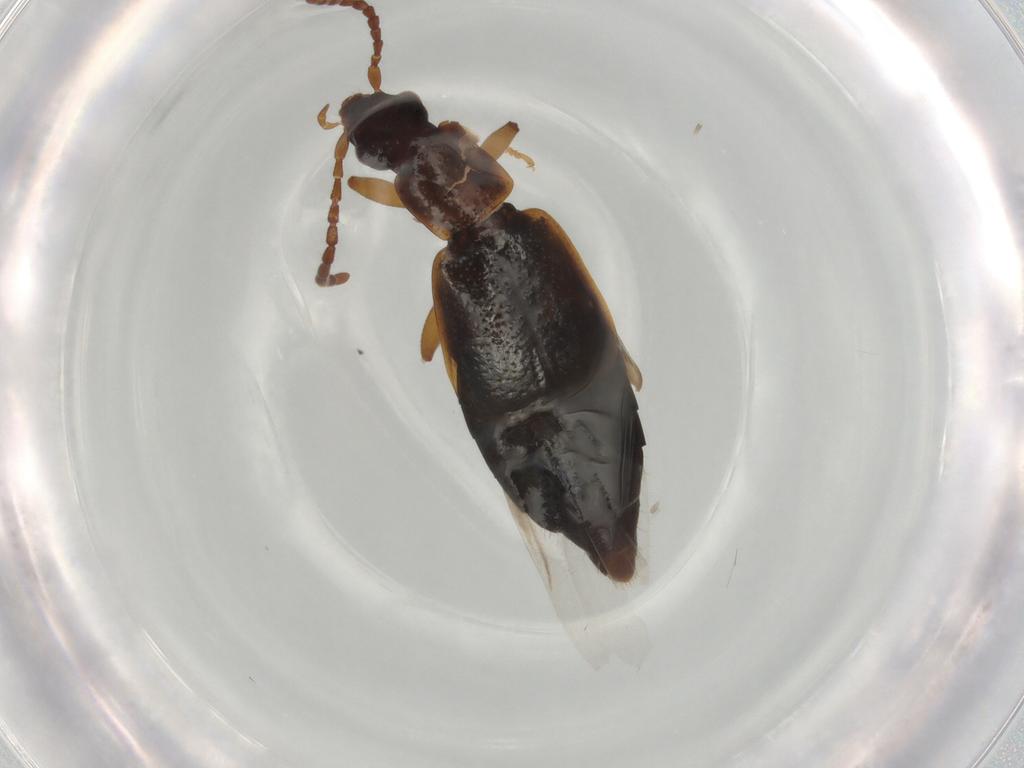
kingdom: Animalia
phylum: Arthropoda
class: Insecta
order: Coleoptera
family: Staphylinidae
